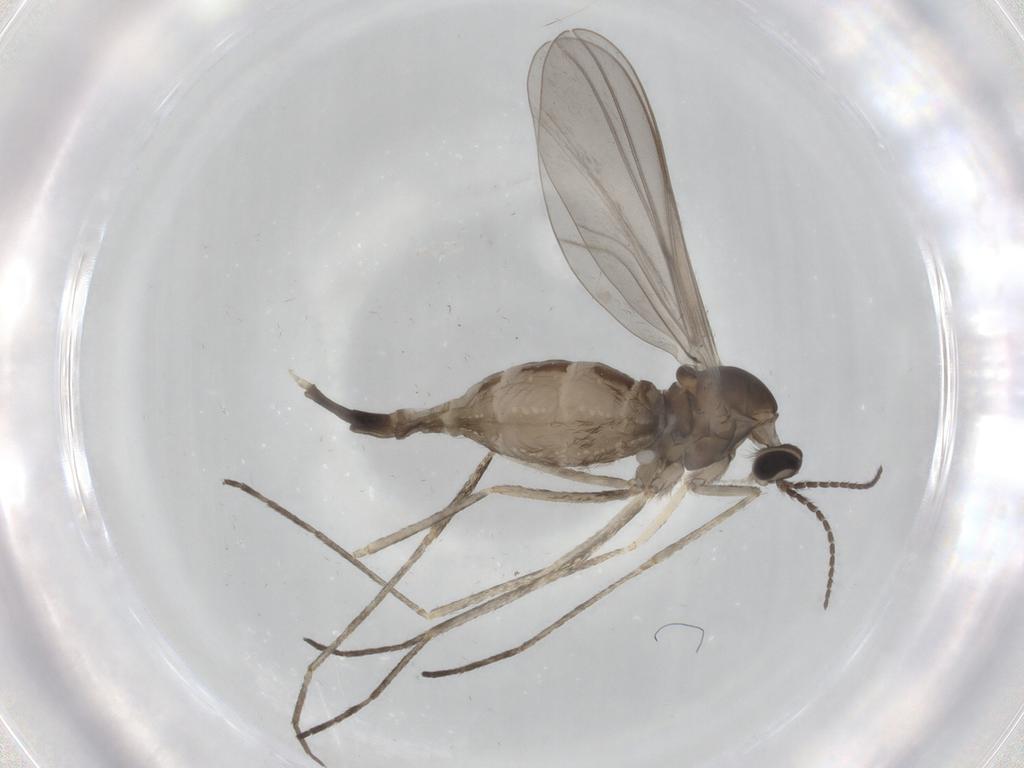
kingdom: Animalia
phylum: Arthropoda
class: Insecta
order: Diptera
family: Cecidomyiidae
